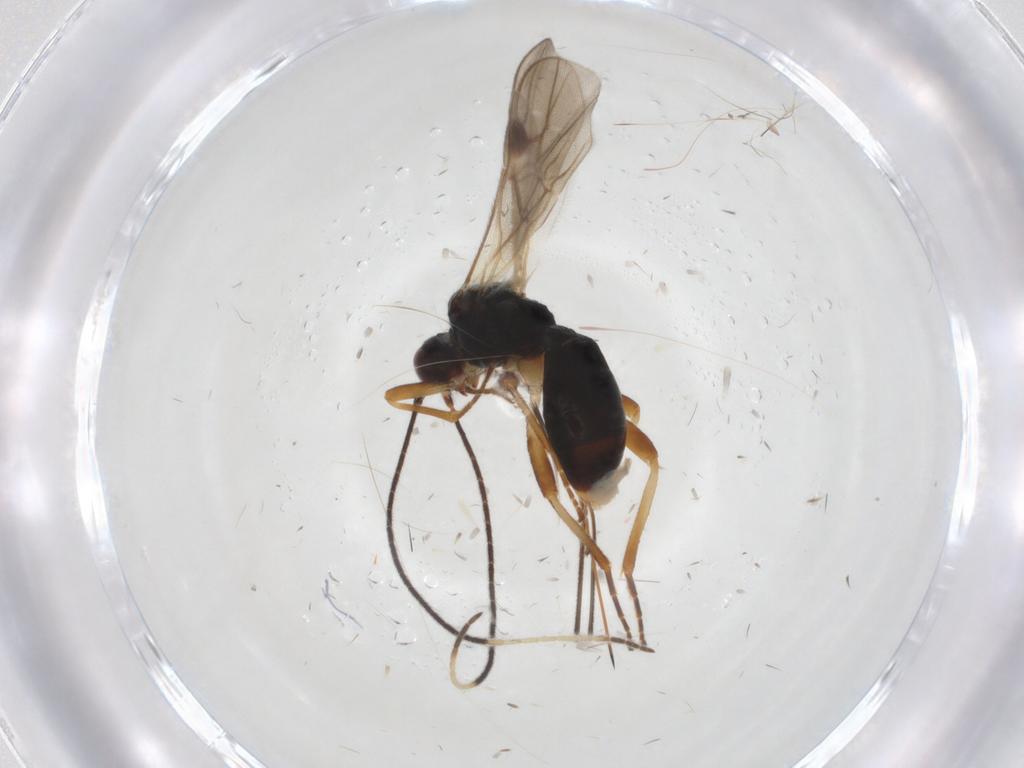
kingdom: Animalia
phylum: Arthropoda
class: Insecta
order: Hymenoptera
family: Braconidae
